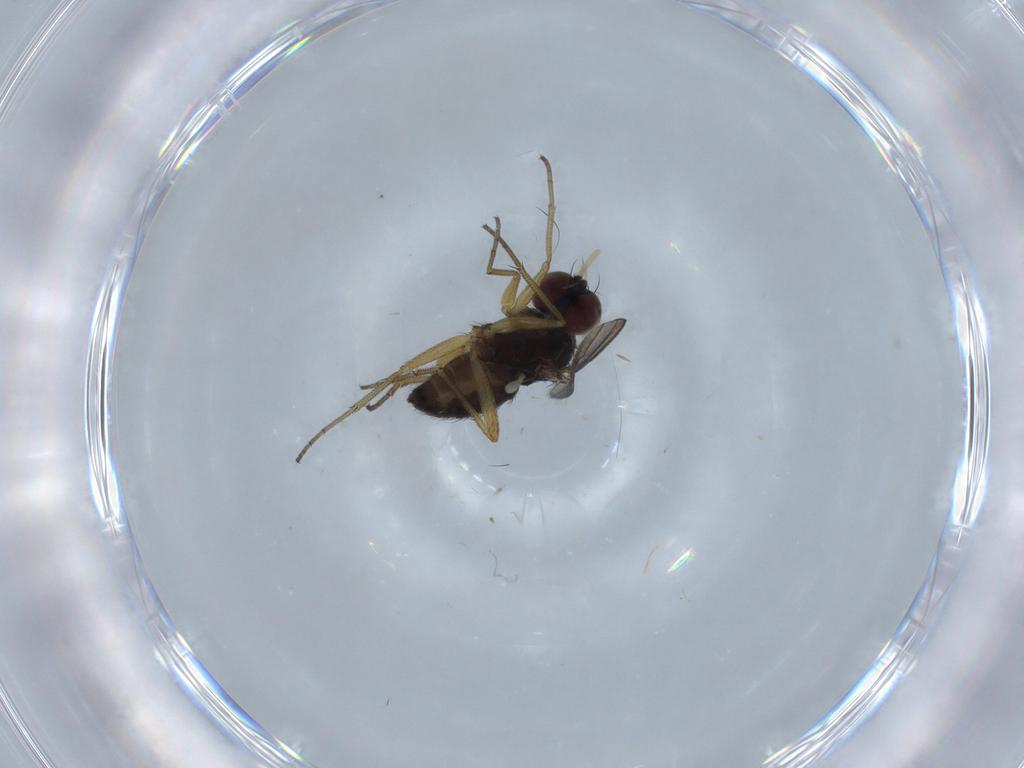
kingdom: Animalia
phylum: Arthropoda
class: Insecta
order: Diptera
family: Dolichopodidae
